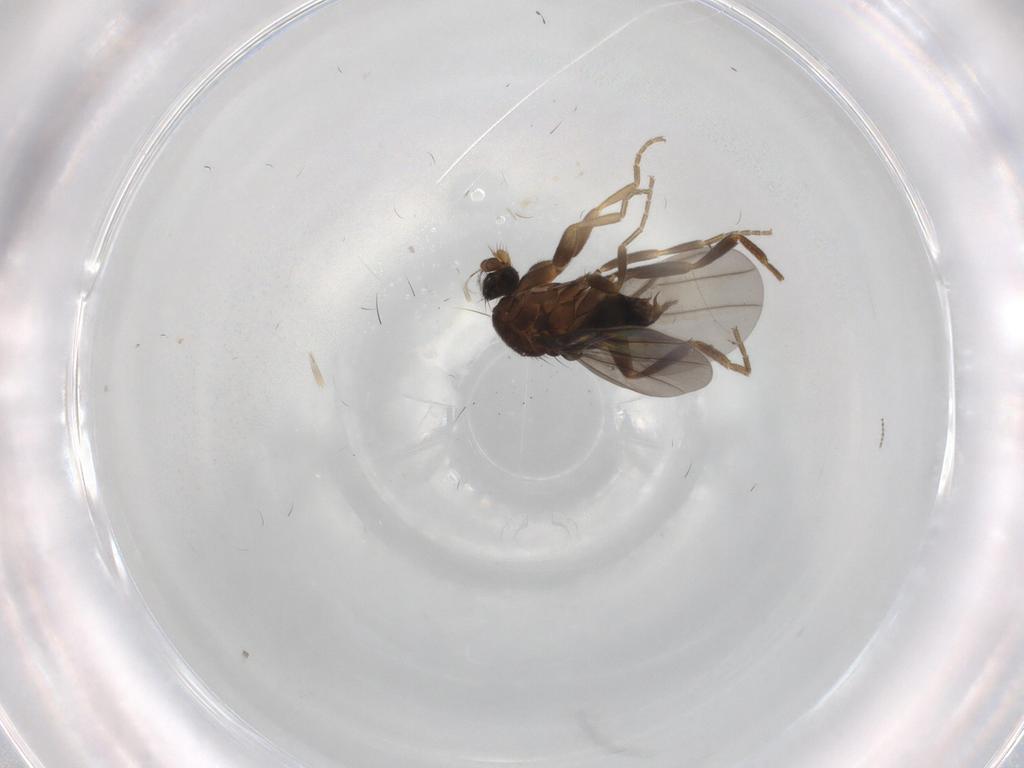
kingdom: Animalia
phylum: Arthropoda
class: Insecta
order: Diptera
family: Phoridae
